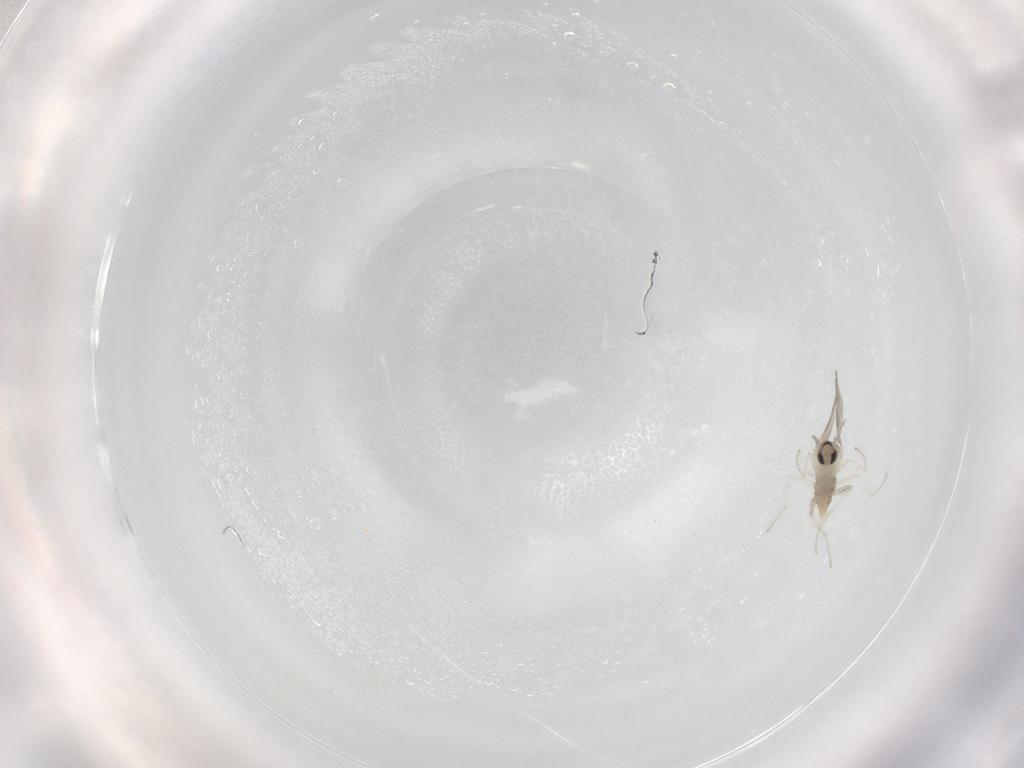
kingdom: Animalia
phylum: Arthropoda
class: Insecta
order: Diptera
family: Cecidomyiidae
